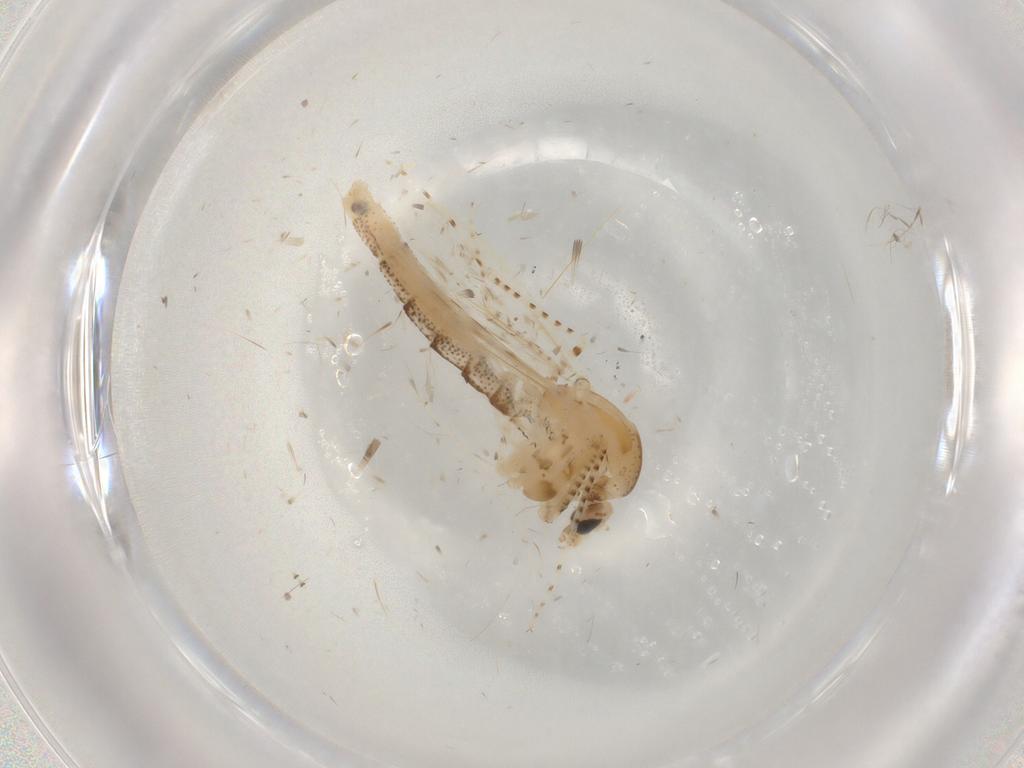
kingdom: Animalia
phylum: Arthropoda
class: Insecta
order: Diptera
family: Chaoboridae
